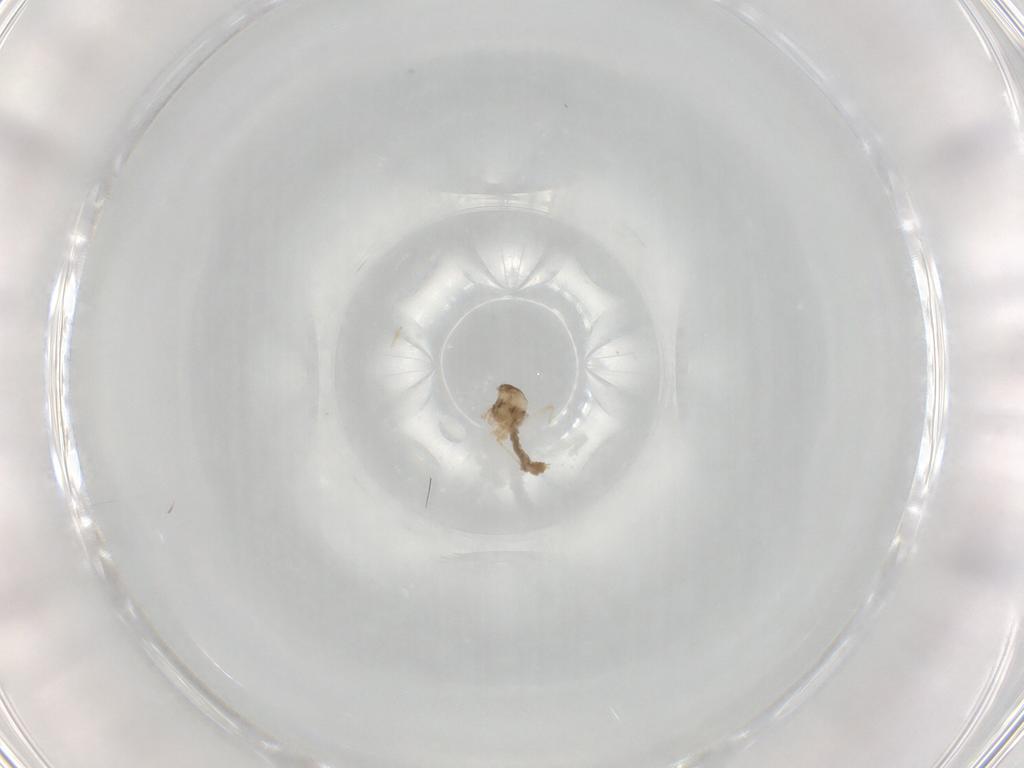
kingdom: Animalia
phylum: Arthropoda
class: Insecta
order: Diptera
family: Cecidomyiidae
